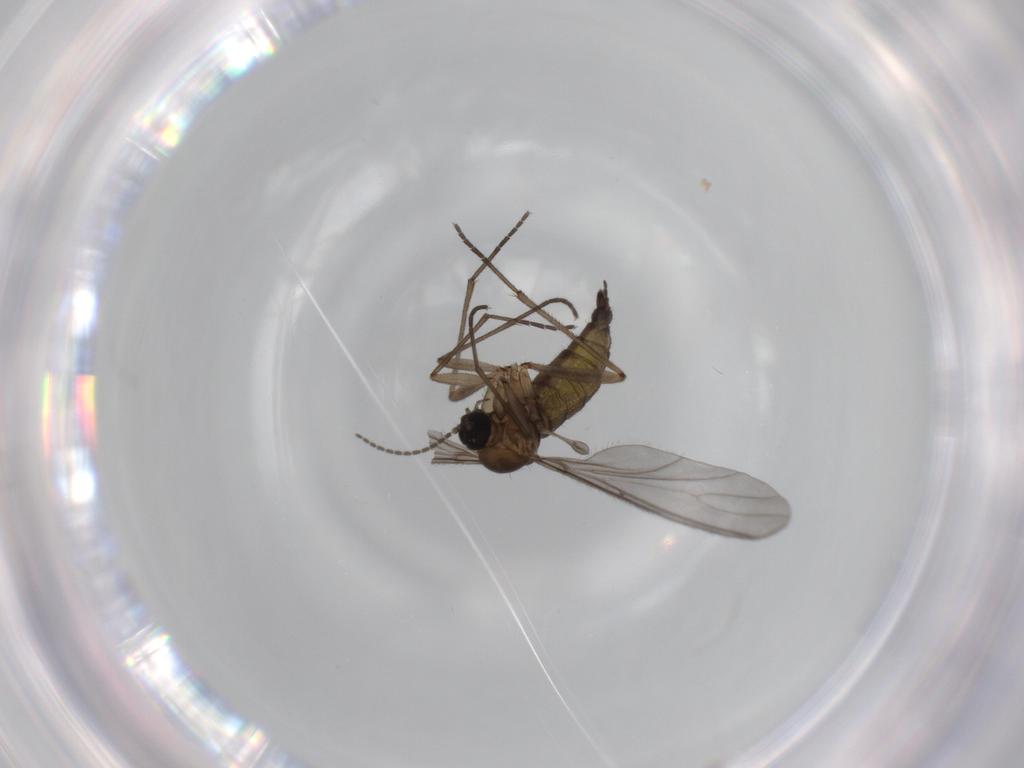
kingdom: Animalia
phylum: Arthropoda
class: Insecta
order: Diptera
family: Sciaridae
